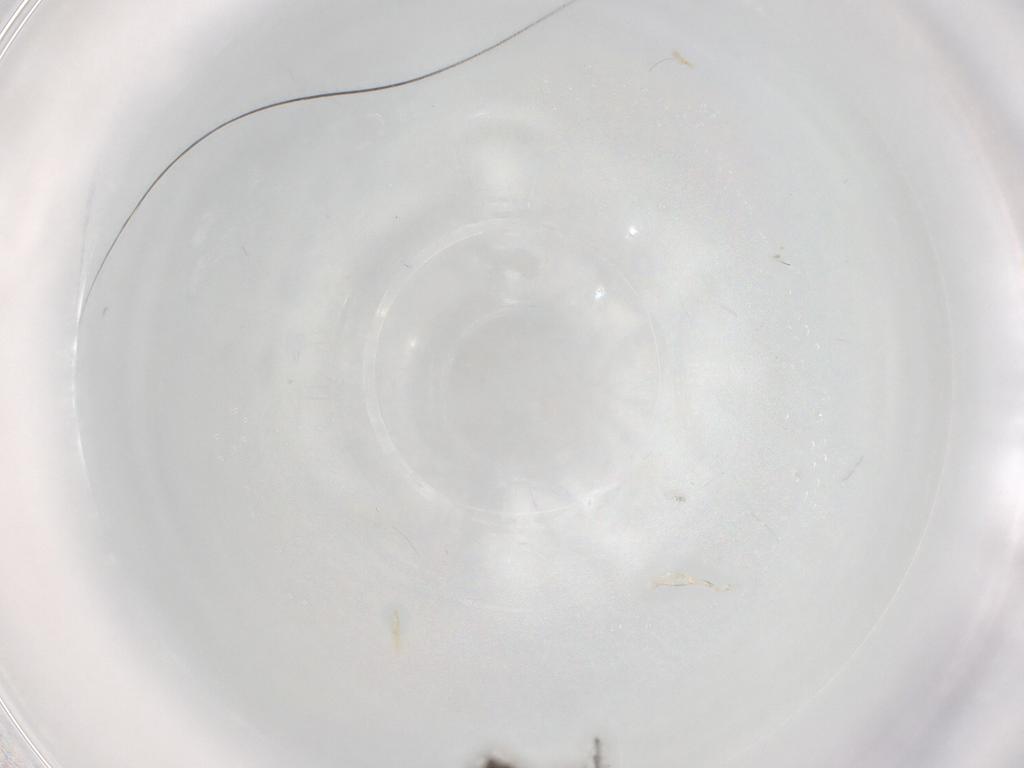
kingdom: Animalia
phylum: Arthropoda
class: Insecta
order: Diptera
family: Chironomidae
